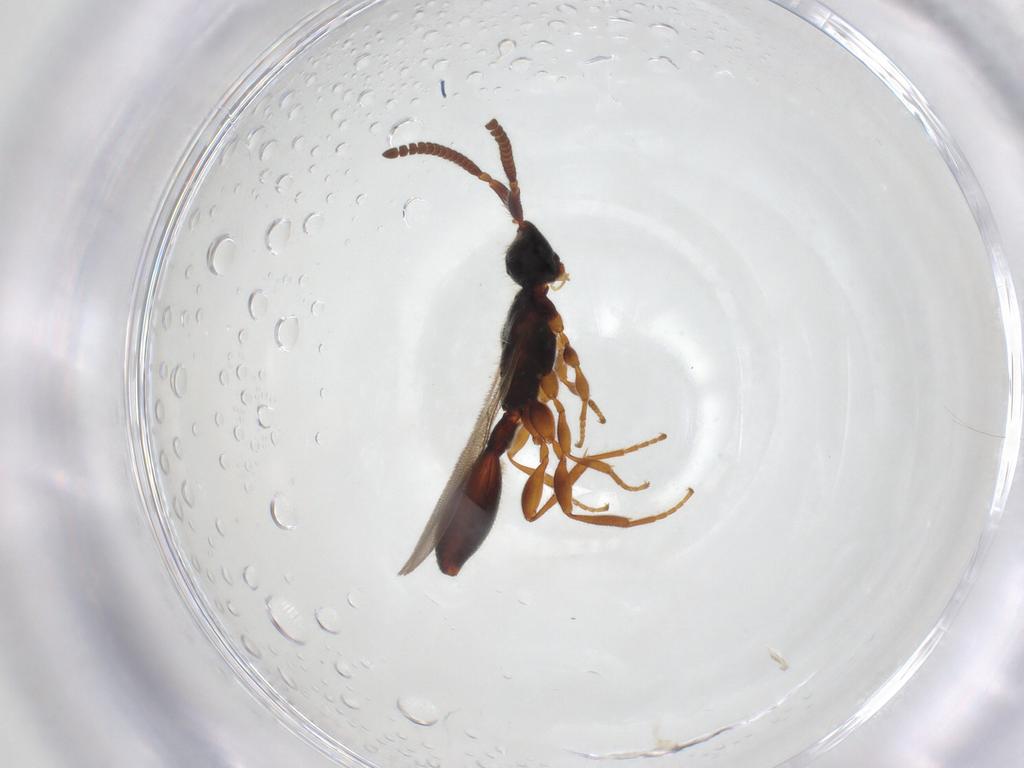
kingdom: Animalia
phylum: Arthropoda
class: Insecta
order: Hymenoptera
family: Diapriidae
